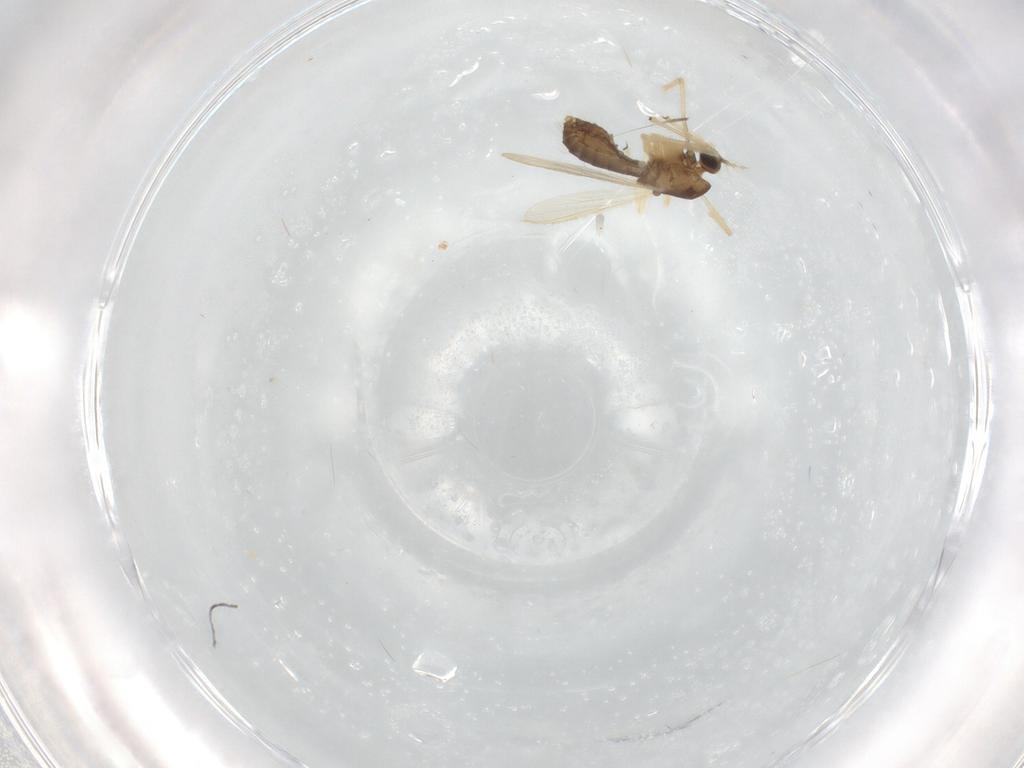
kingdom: Animalia
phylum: Arthropoda
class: Insecta
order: Diptera
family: Chironomidae
